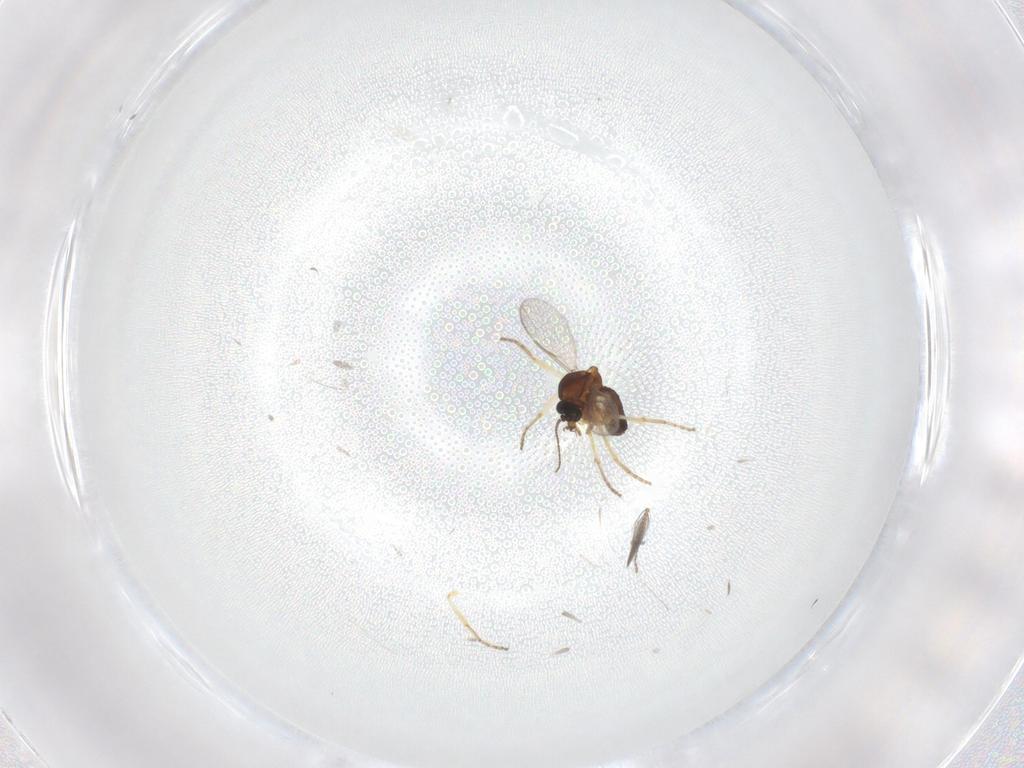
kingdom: Animalia
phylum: Arthropoda
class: Insecta
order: Diptera
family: Ceratopogonidae
